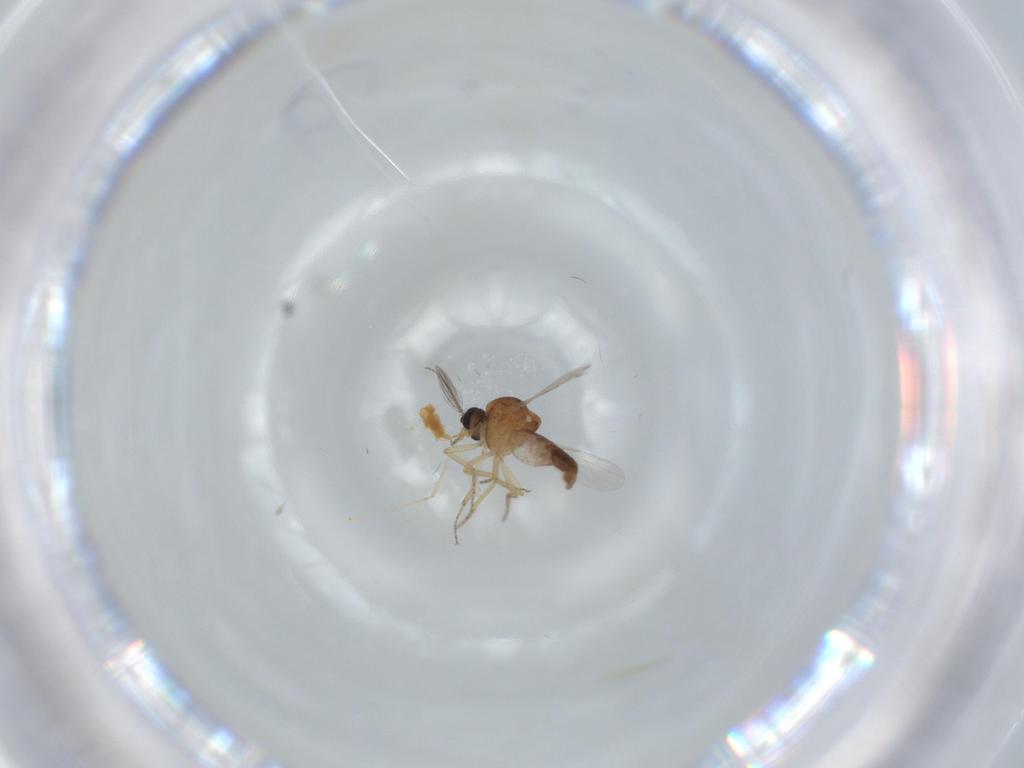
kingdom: Animalia
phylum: Arthropoda
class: Insecta
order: Diptera
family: Ceratopogonidae
